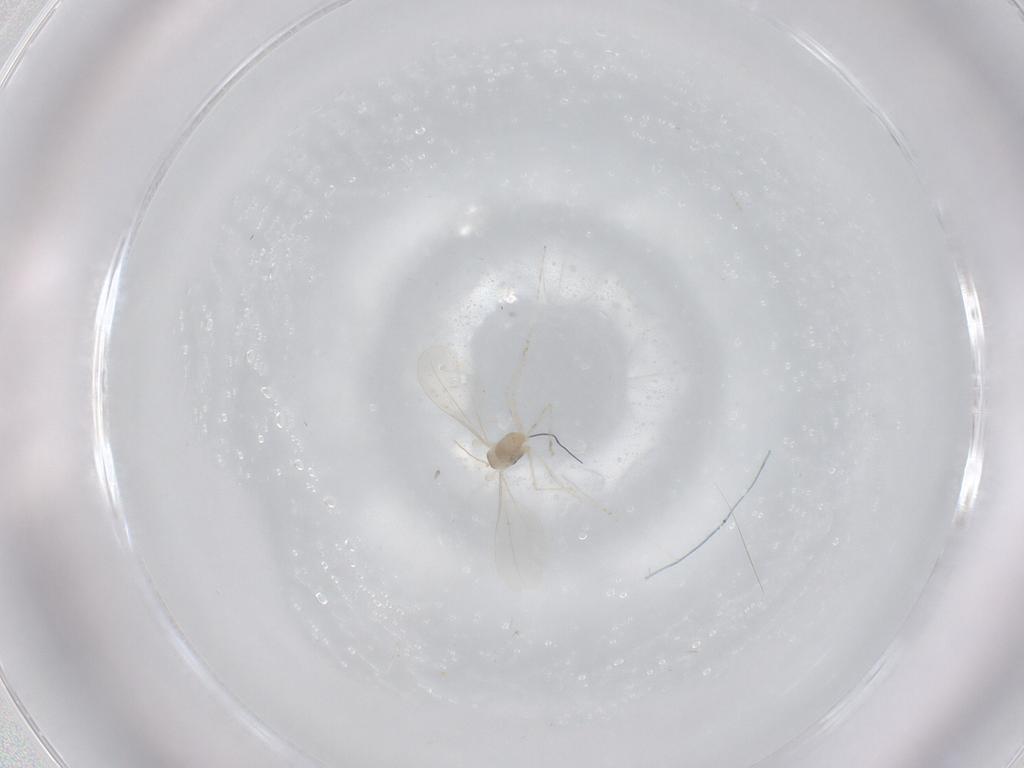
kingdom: Animalia
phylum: Arthropoda
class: Insecta
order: Diptera
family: Cecidomyiidae
